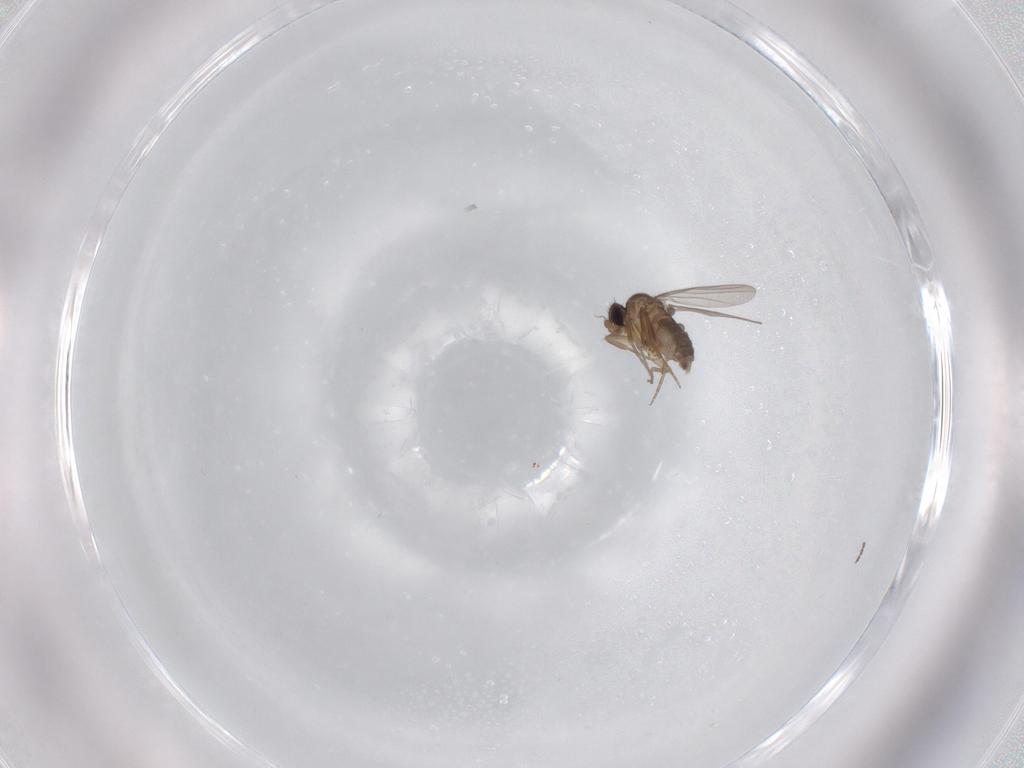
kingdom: Animalia
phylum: Arthropoda
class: Insecta
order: Diptera
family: Phoridae
